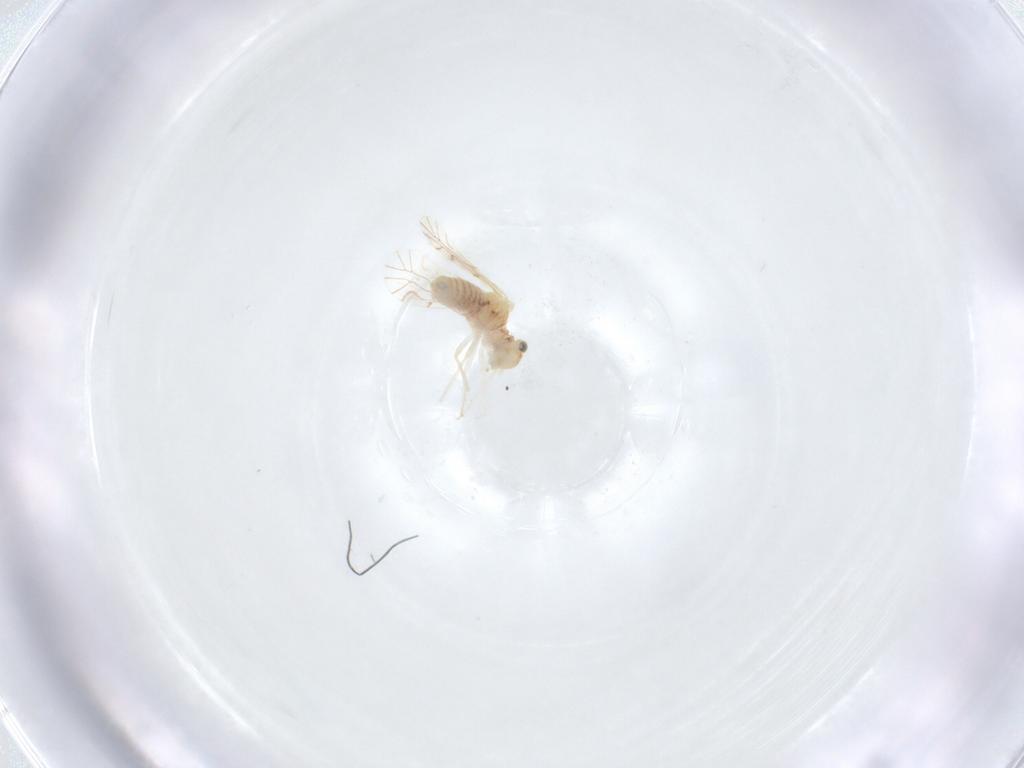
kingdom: Animalia
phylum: Arthropoda
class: Insecta
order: Psocodea
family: Lachesillidae
